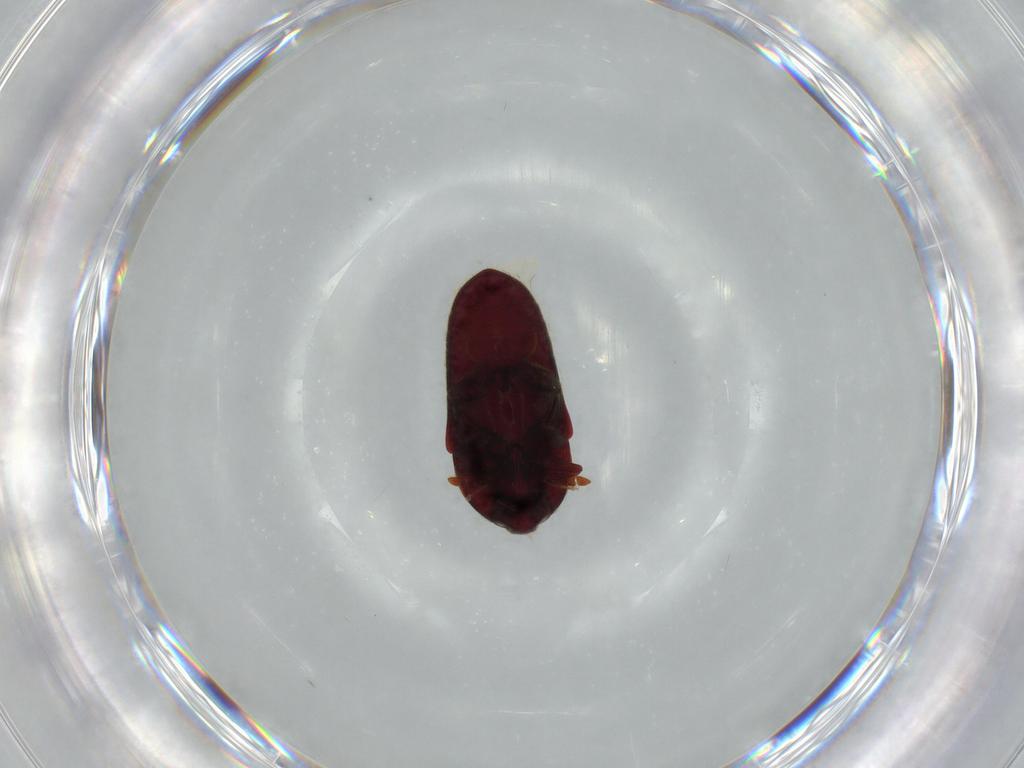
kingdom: Animalia
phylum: Arthropoda
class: Insecta
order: Coleoptera
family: Throscidae
